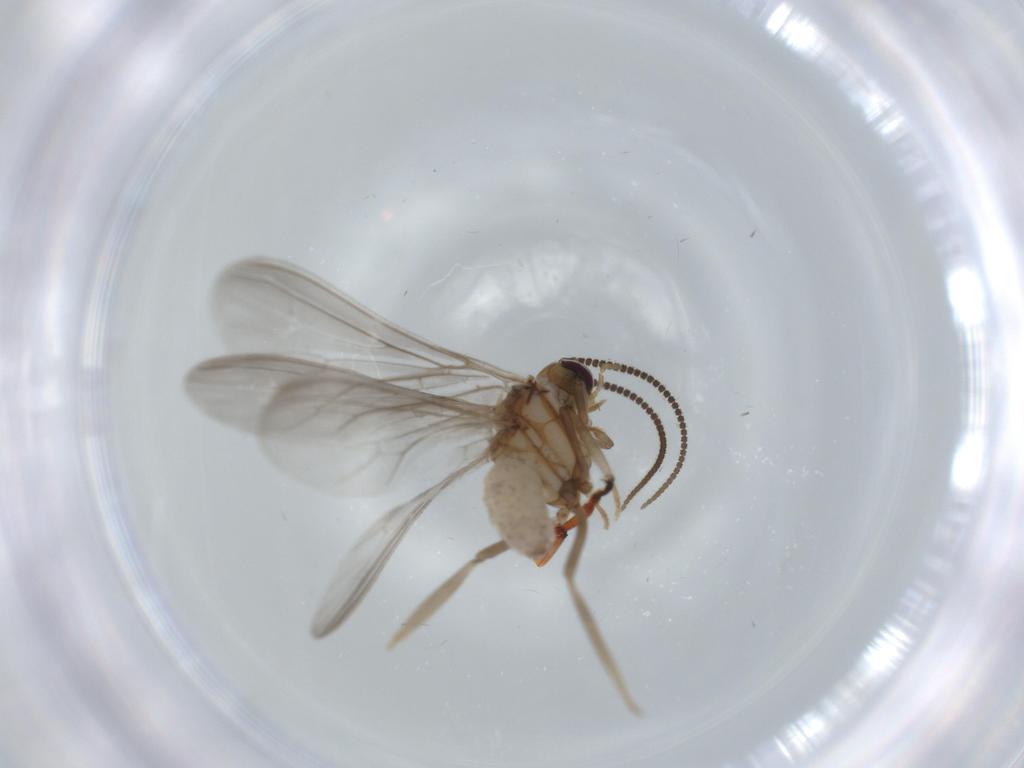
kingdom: Animalia
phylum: Arthropoda
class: Insecta
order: Neuroptera
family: Coniopterygidae
